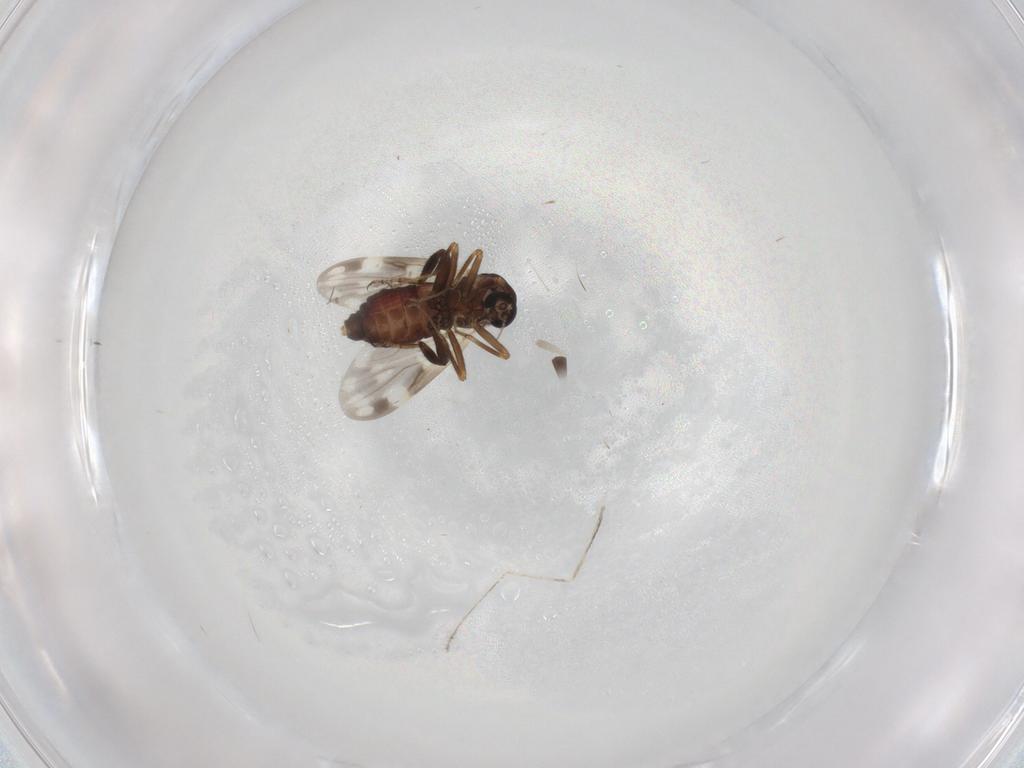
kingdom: Animalia
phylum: Arthropoda
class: Insecta
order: Diptera
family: Ceratopogonidae
